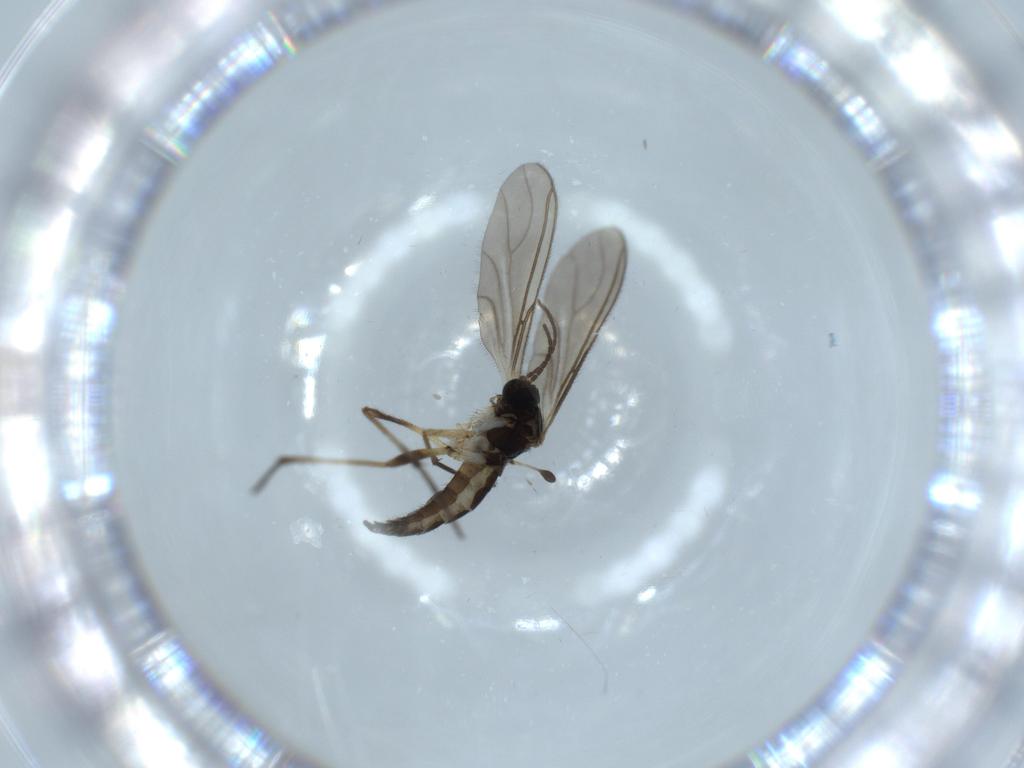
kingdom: Animalia
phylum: Arthropoda
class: Insecta
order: Diptera
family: Sciaridae
